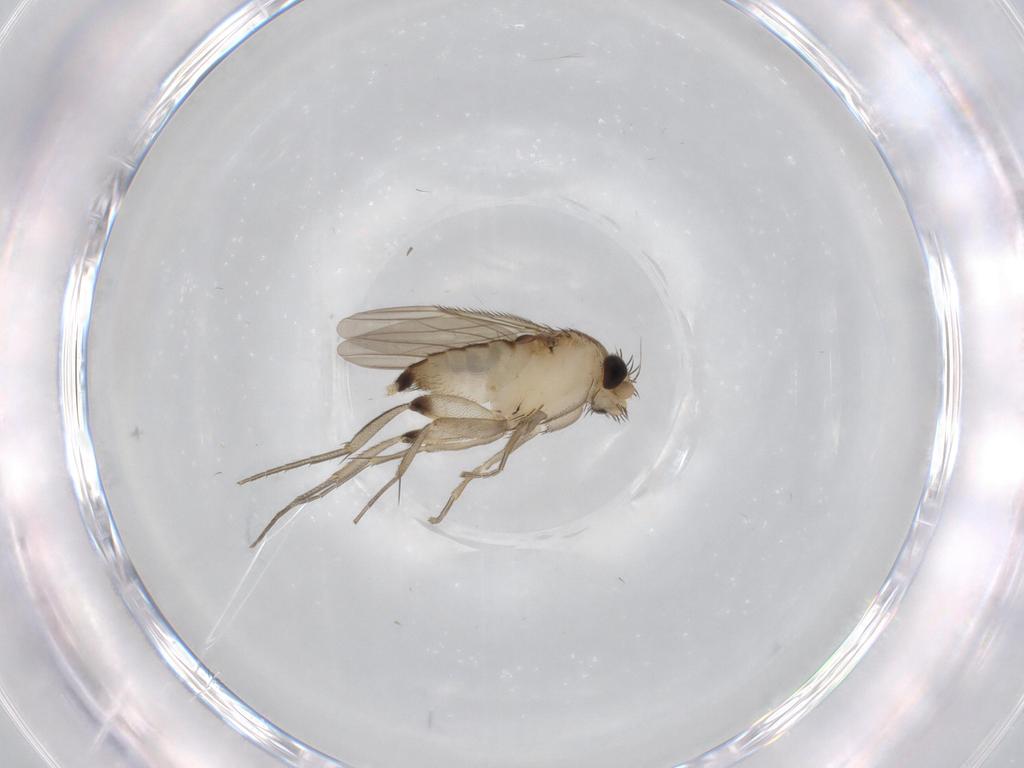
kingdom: Animalia
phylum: Arthropoda
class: Insecta
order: Diptera
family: Phoridae
